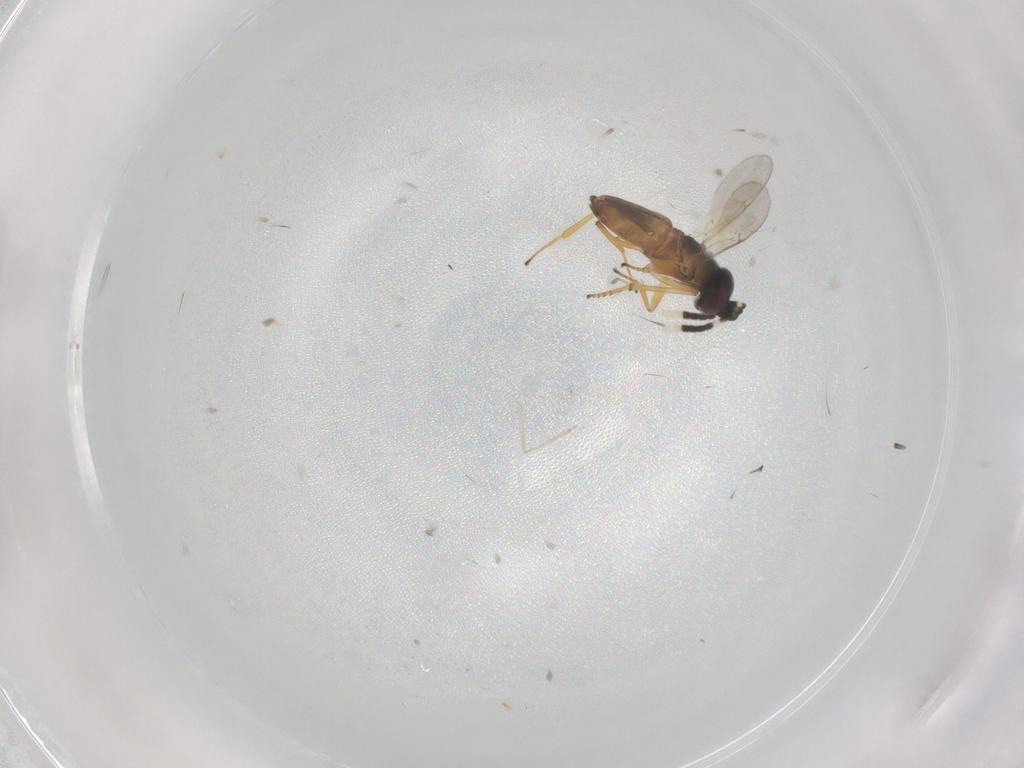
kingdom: Animalia
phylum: Arthropoda
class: Insecta
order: Hymenoptera
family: Encyrtidae
